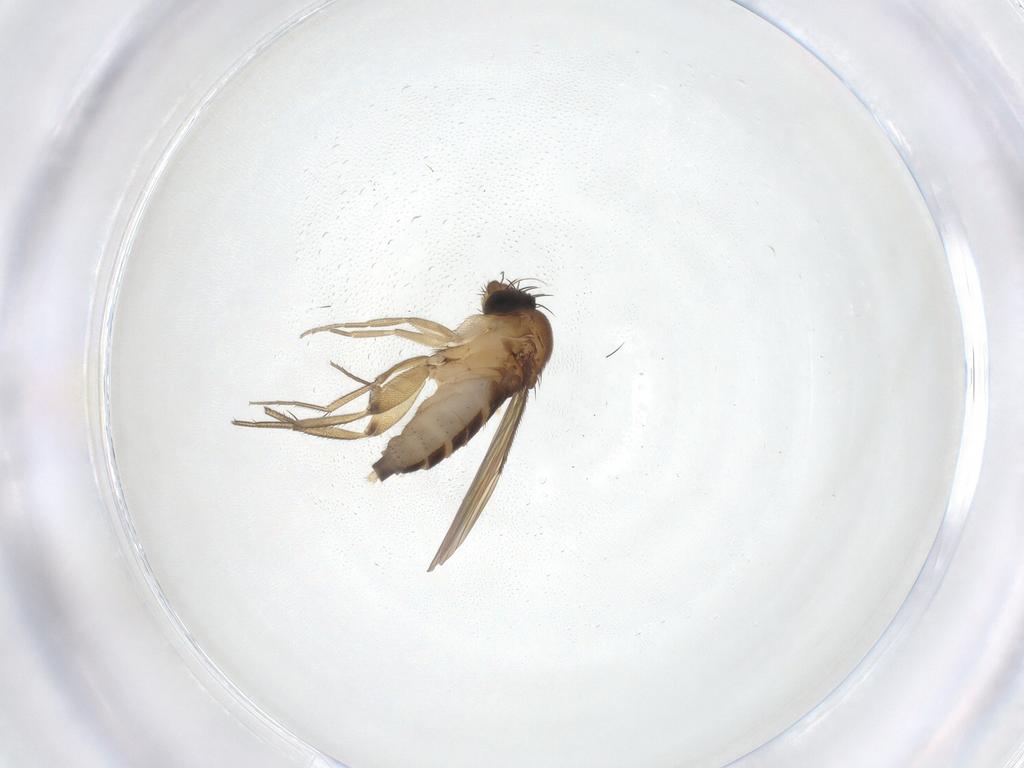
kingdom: Animalia
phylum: Arthropoda
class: Insecta
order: Diptera
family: Phoridae
